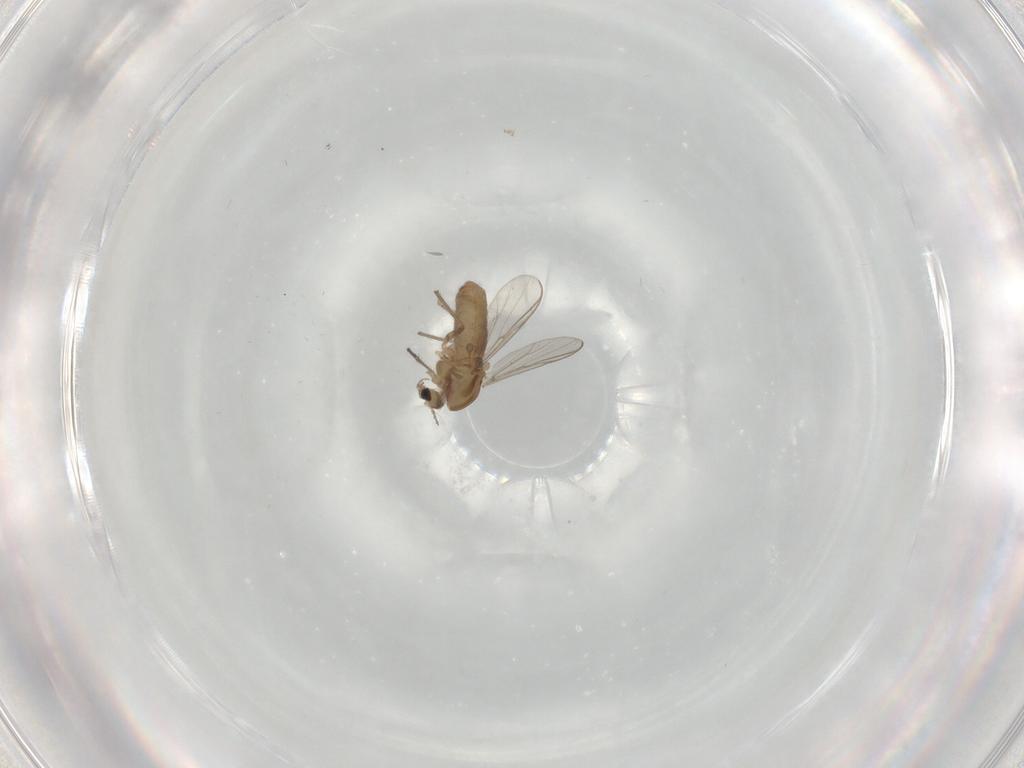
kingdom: Animalia
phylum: Arthropoda
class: Insecta
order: Diptera
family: Chironomidae
